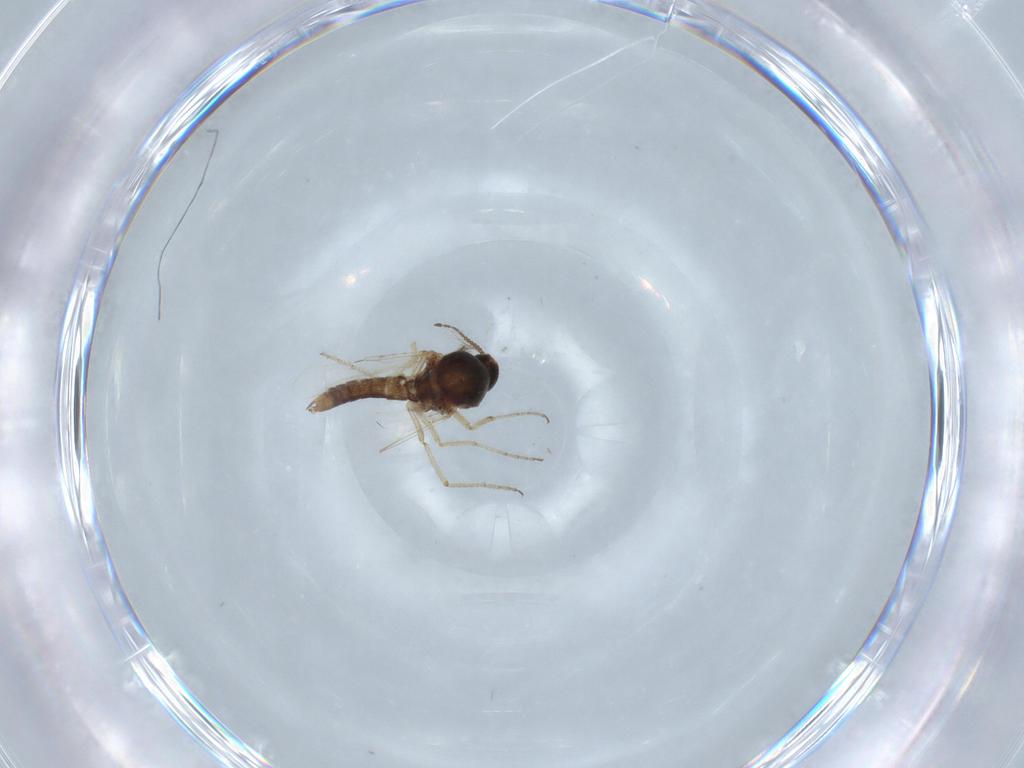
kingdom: Animalia
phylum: Arthropoda
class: Insecta
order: Diptera
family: Ceratopogonidae
